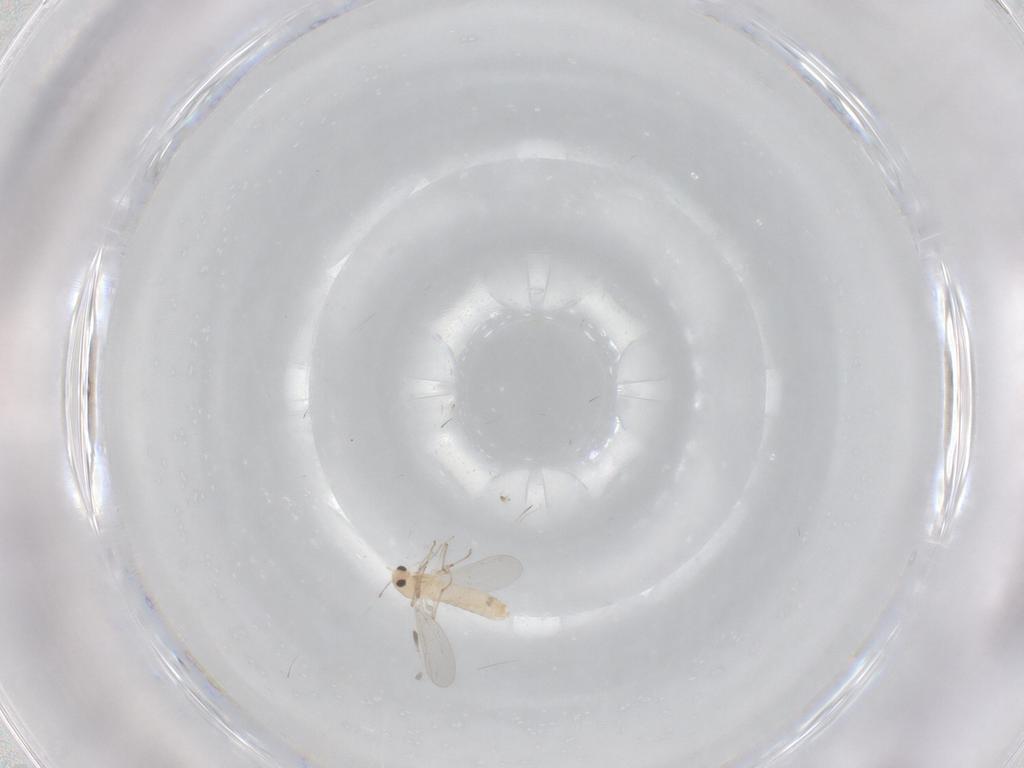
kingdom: Animalia
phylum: Arthropoda
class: Insecta
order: Diptera
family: Chironomidae
